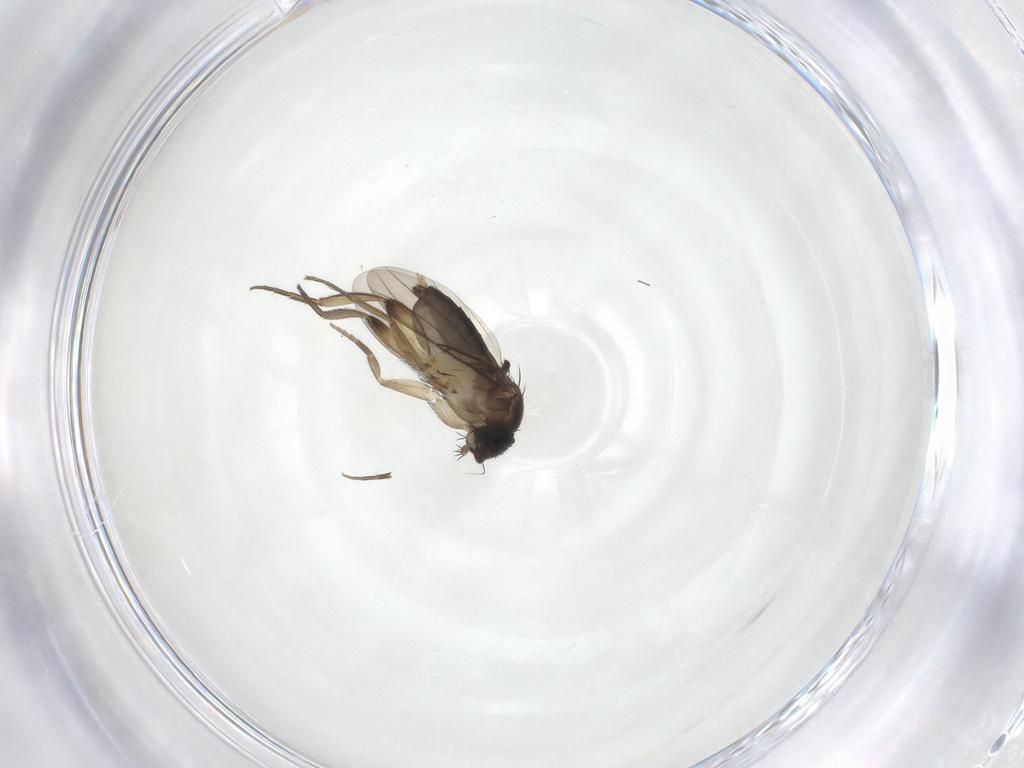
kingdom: Animalia
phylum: Arthropoda
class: Insecta
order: Diptera
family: Phoridae
